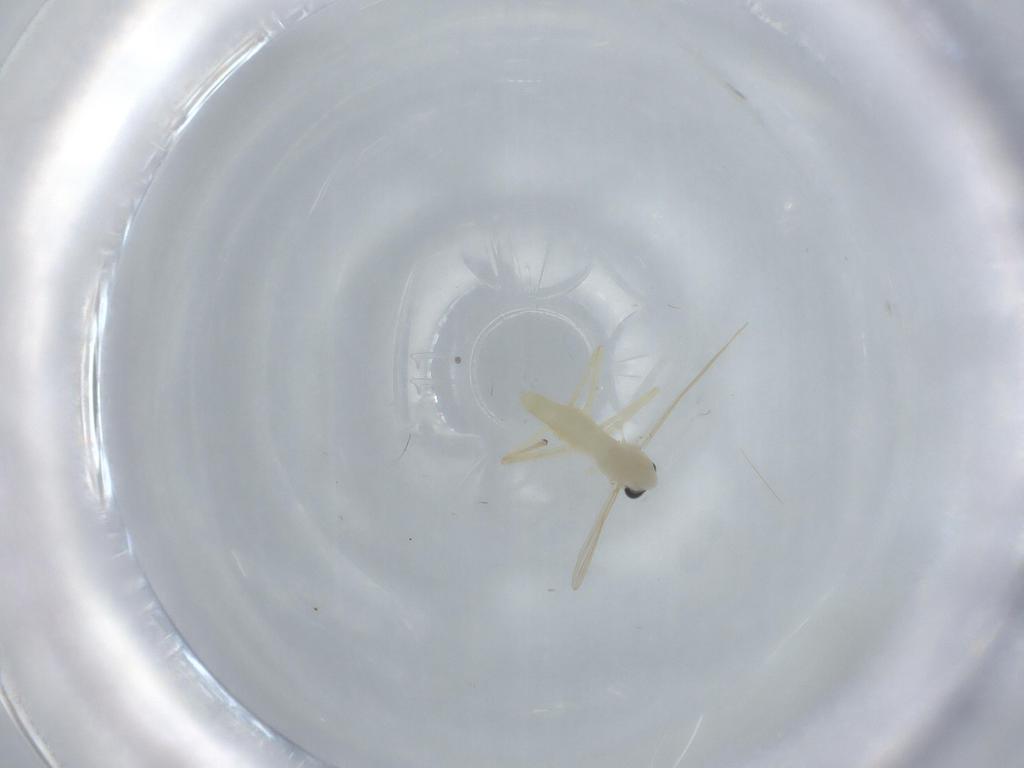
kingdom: Animalia
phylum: Arthropoda
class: Insecta
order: Diptera
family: Chironomidae
